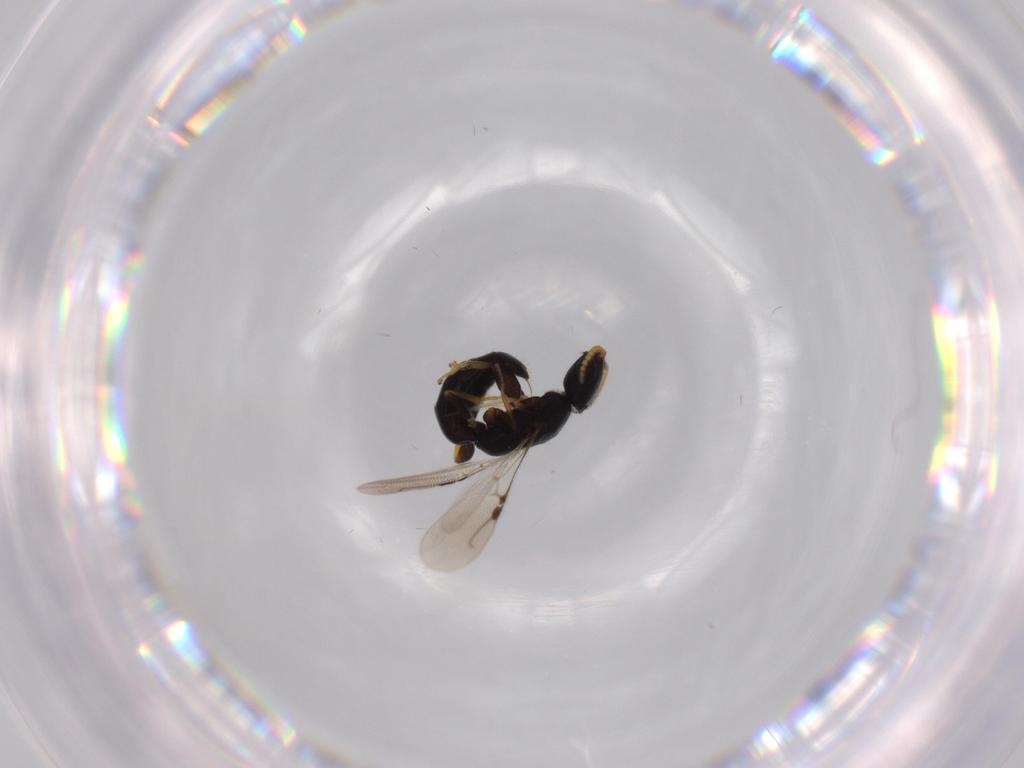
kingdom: Animalia
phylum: Arthropoda
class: Insecta
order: Hymenoptera
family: Bethylidae
